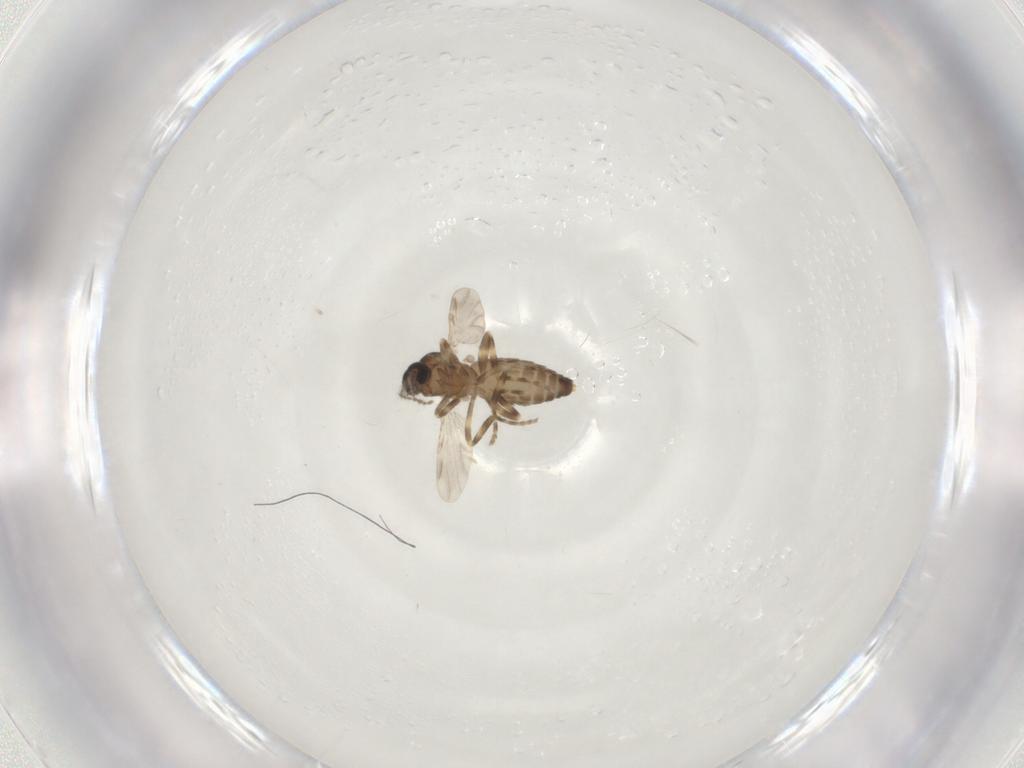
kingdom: Animalia
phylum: Arthropoda
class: Insecta
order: Diptera
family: Ceratopogonidae
